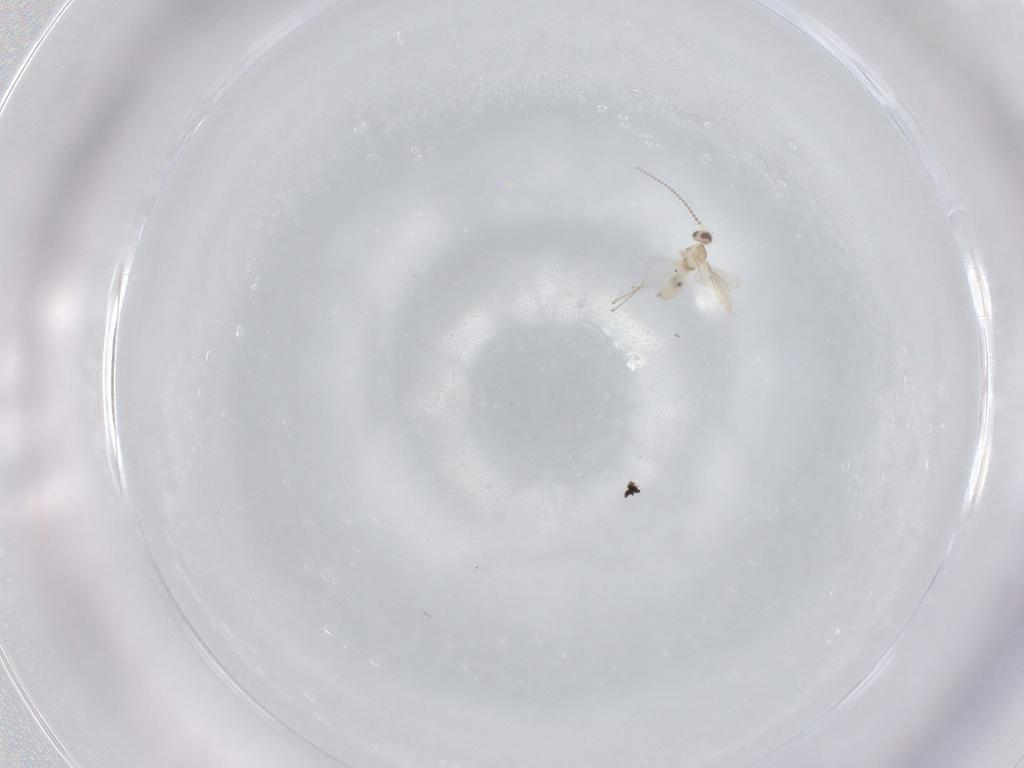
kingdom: Animalia
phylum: Arthropoda
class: Insecta
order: Diptera
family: Cecidomyiidae
